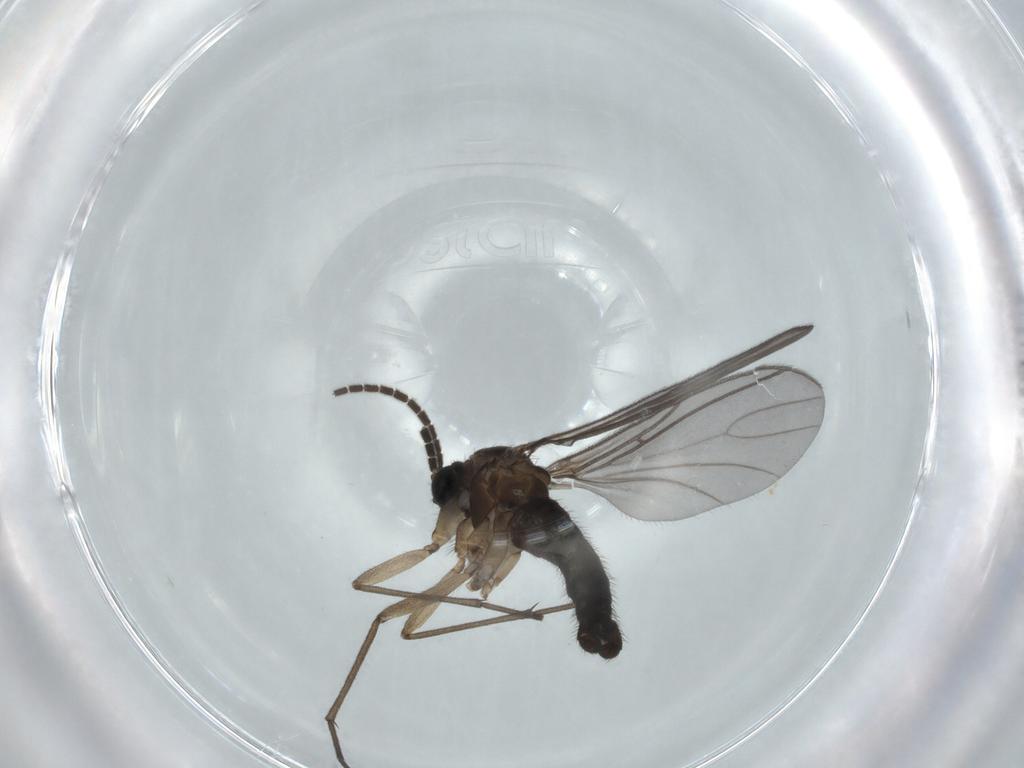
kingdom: Animalia
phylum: Arthropoda
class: Insecta
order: Diptera
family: Sciaridae
